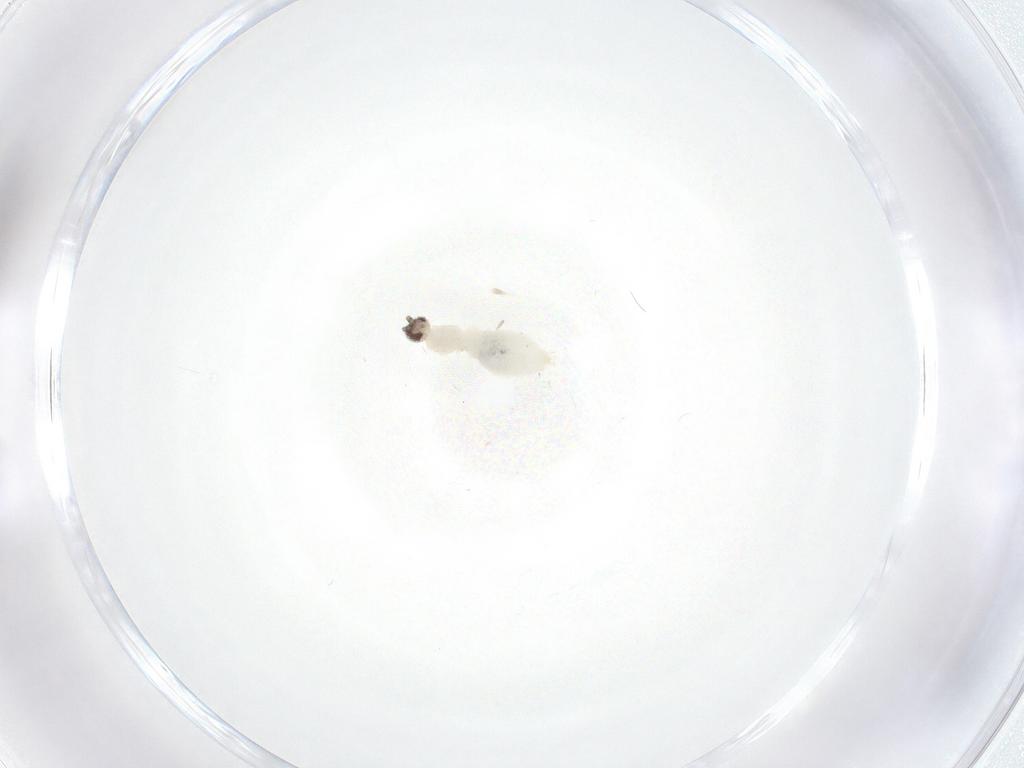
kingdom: Animalia
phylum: Arthropoda
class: Insecta
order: Diptera
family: Cecidomyiidae
